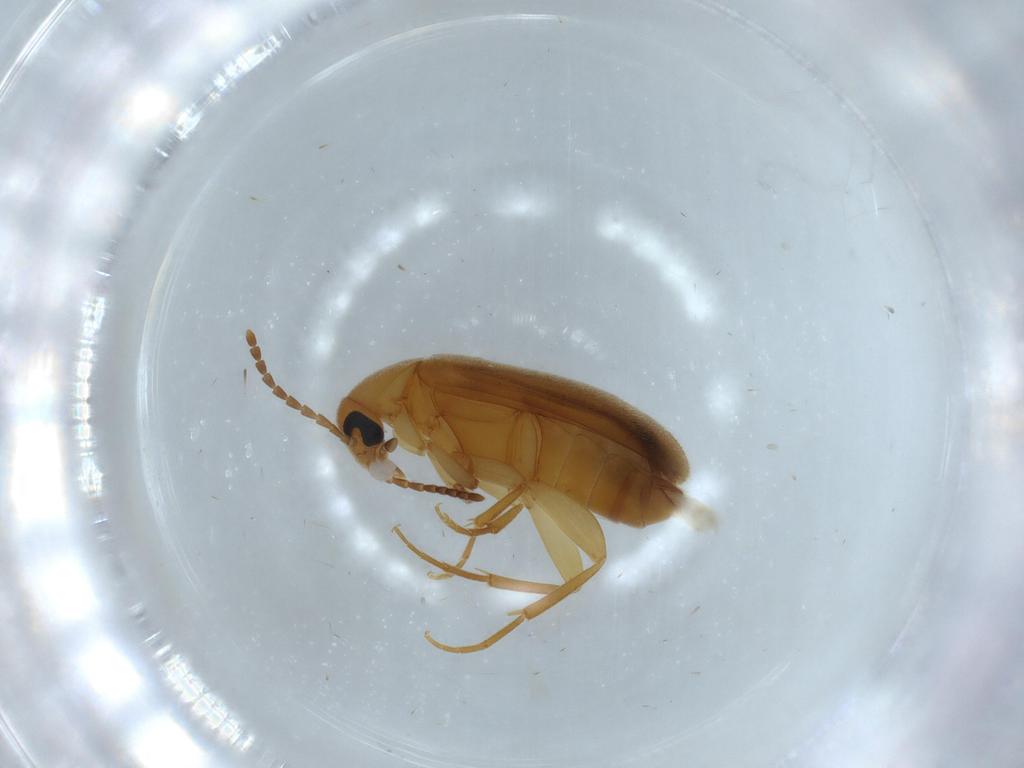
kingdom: Animalia
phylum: Arthropoda
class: Insecta
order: Coleoptera
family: Scraptiidae
